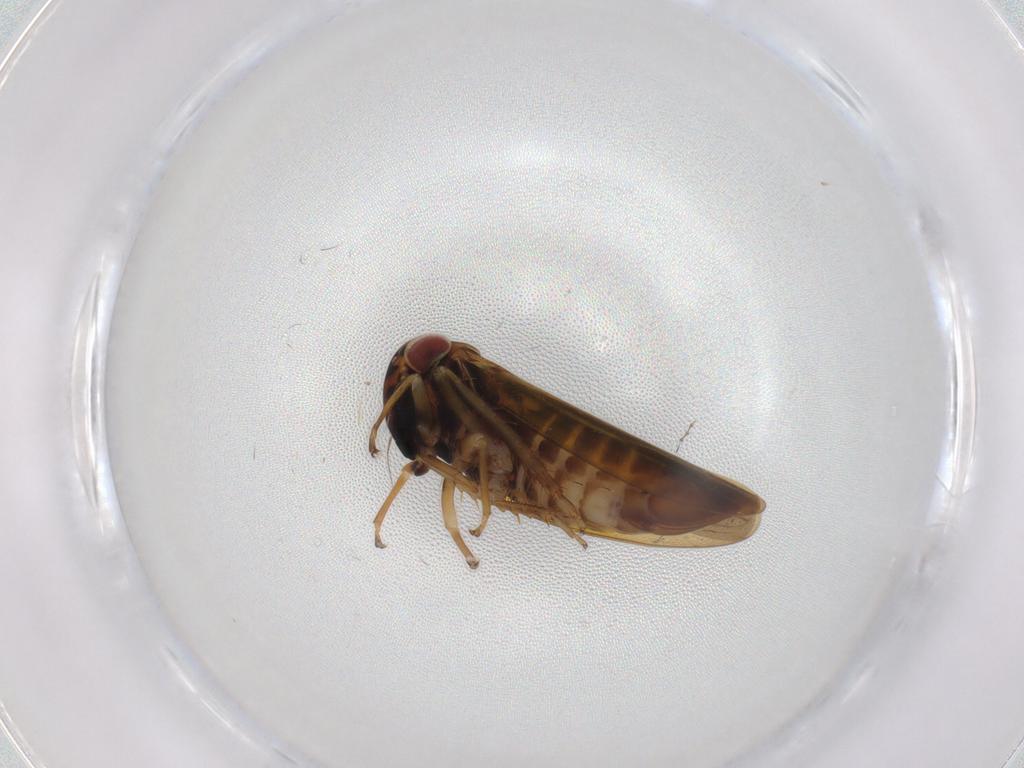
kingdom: Animalia
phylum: Arthropoda
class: Insecta
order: Hemiptera
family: Cicadellidae
